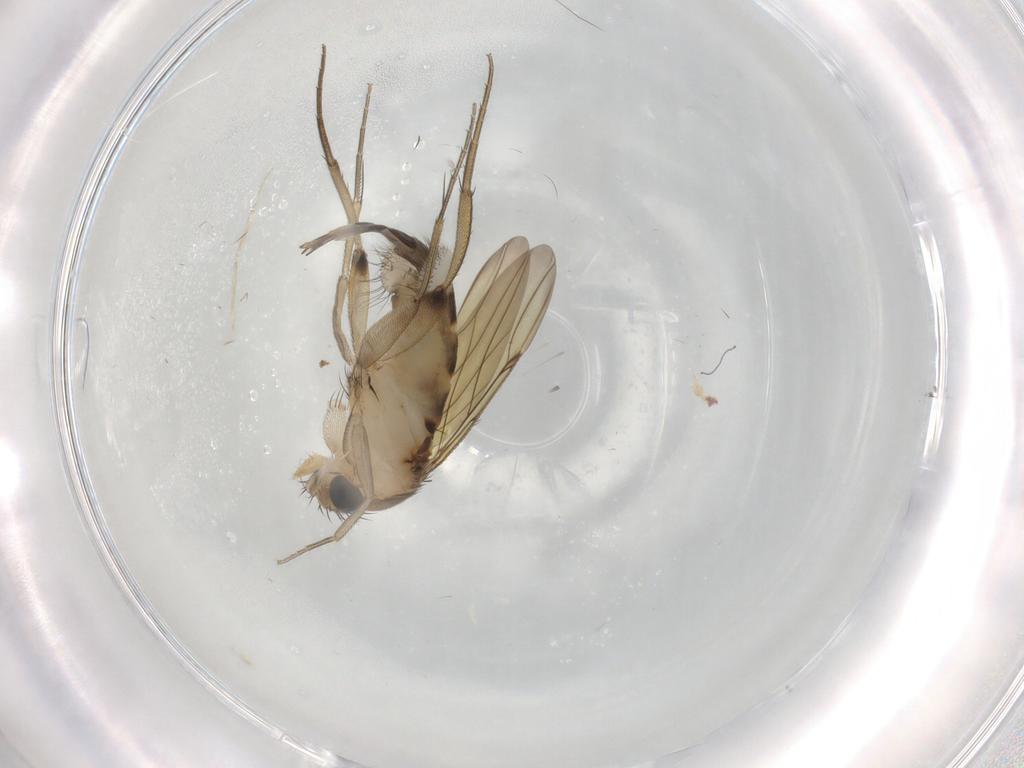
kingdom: Animalia
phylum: Arthropoda
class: Insecta
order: Diptera
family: Phoridae
